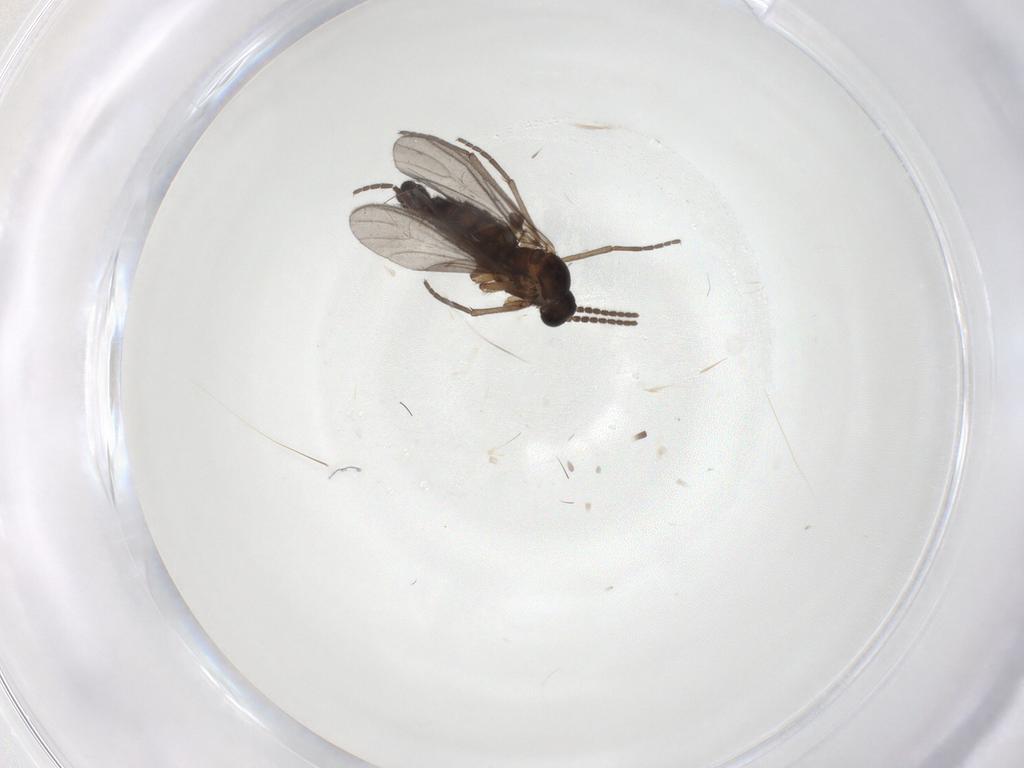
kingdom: Animalia
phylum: Arthropoda
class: Insecta
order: Diptera
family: Sciaridae
